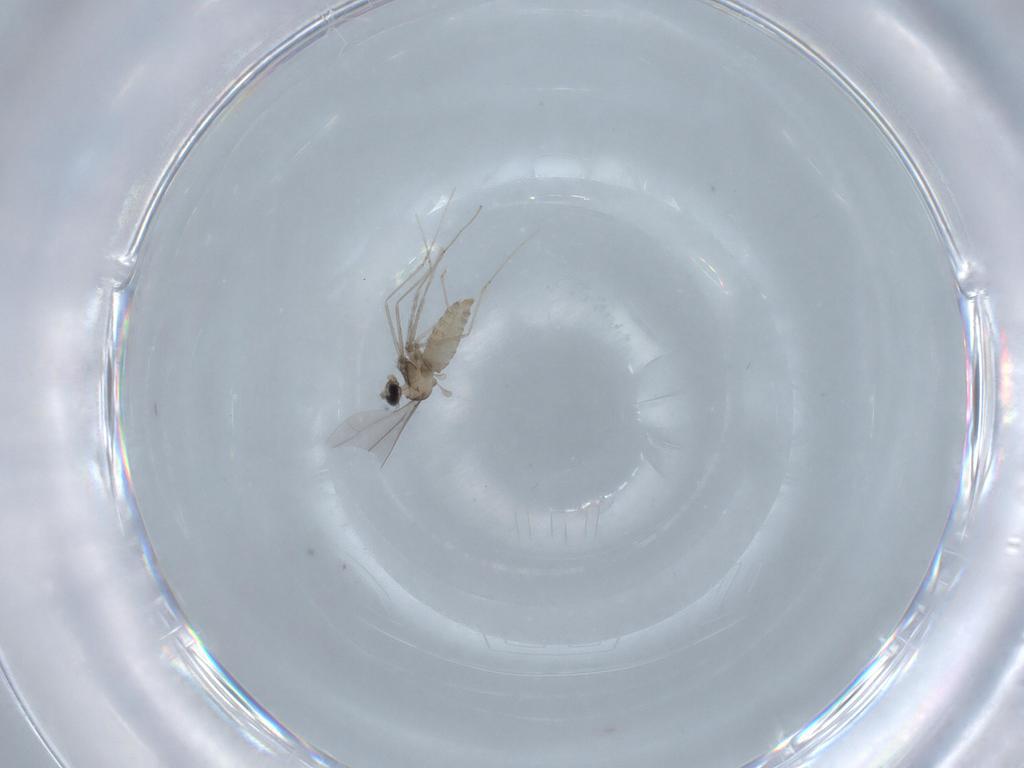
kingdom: Animalia
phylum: Arthropoda
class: Insecta
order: Diptera
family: Cecidomyiidae
